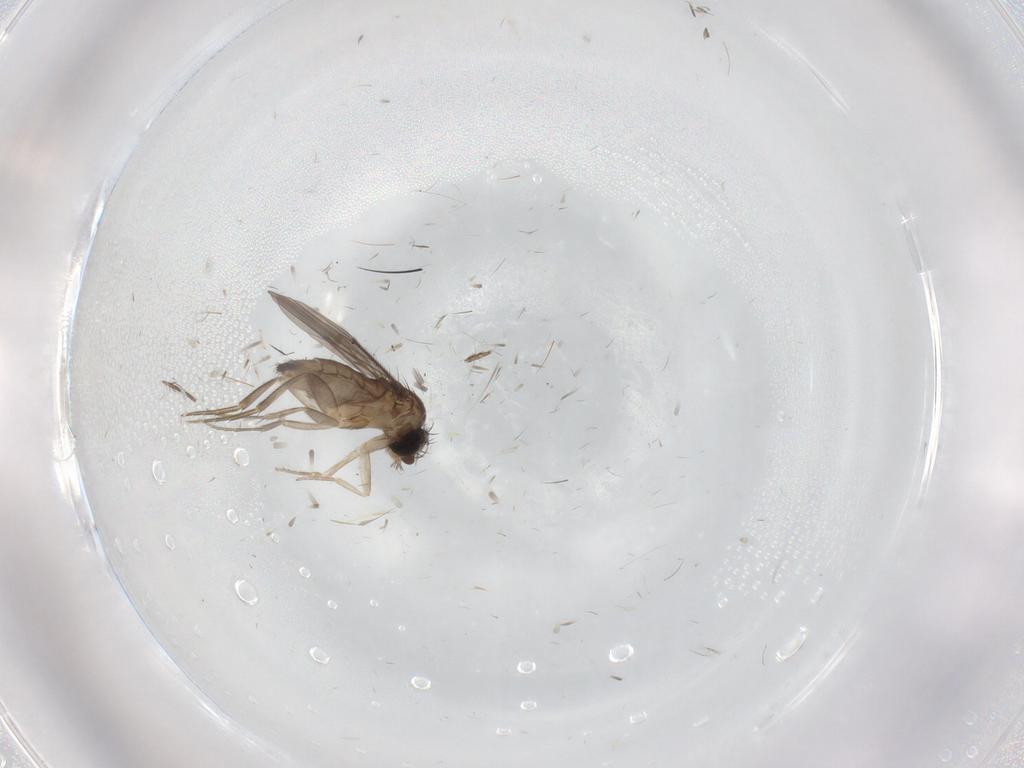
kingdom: Animalia
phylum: Arthropoda
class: Insecta
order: Diptera
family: Phoridae
